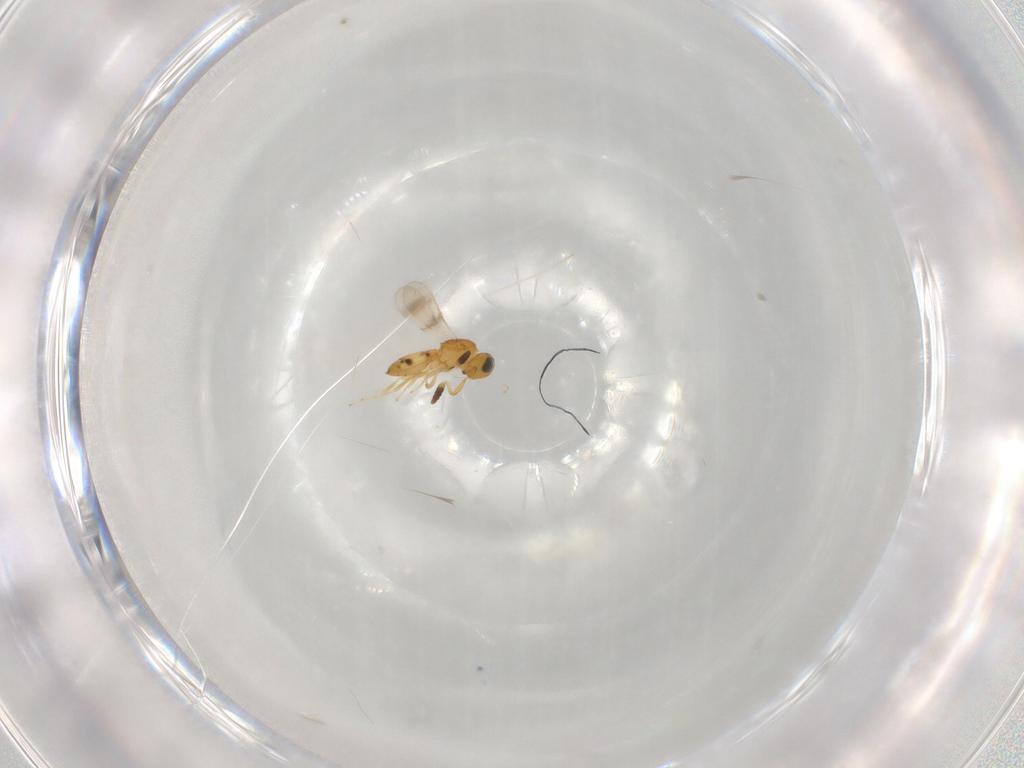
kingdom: Animalia
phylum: Arthropoda
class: Insecta
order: Hymenoptera
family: Scelionidae
